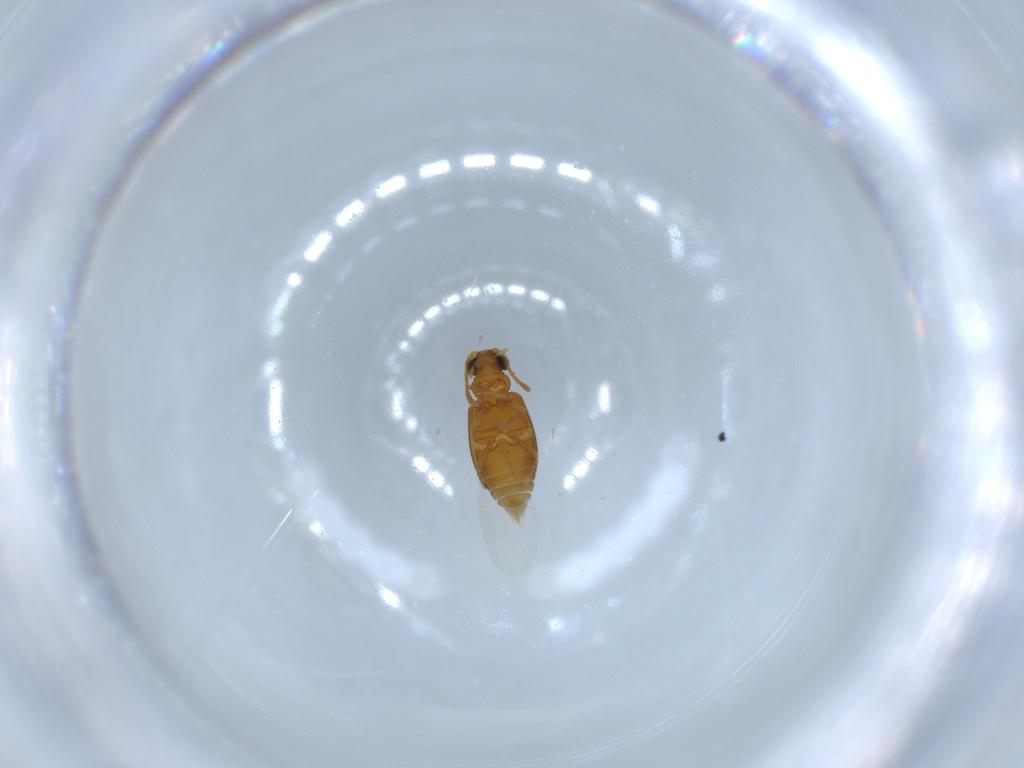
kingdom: Animalia
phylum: Arthropoda
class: Insecta
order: Coleoptera
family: Aderidae
